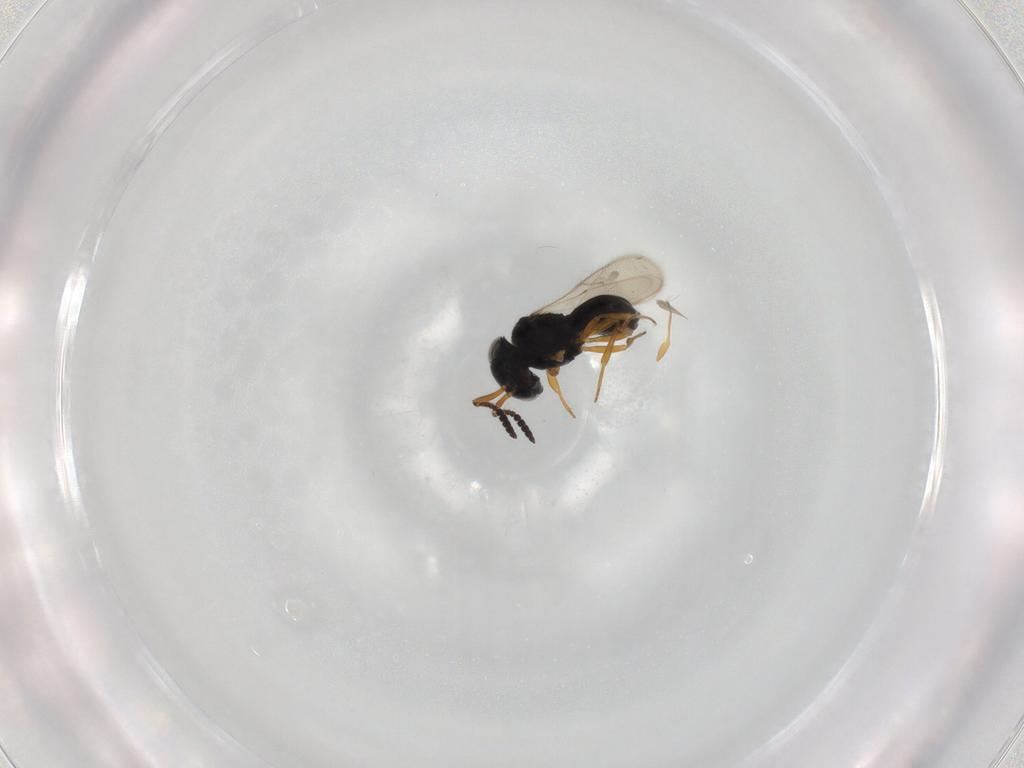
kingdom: Animalia
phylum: Arthropoda
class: Insecta
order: Hymenoptera
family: Scelionidae
